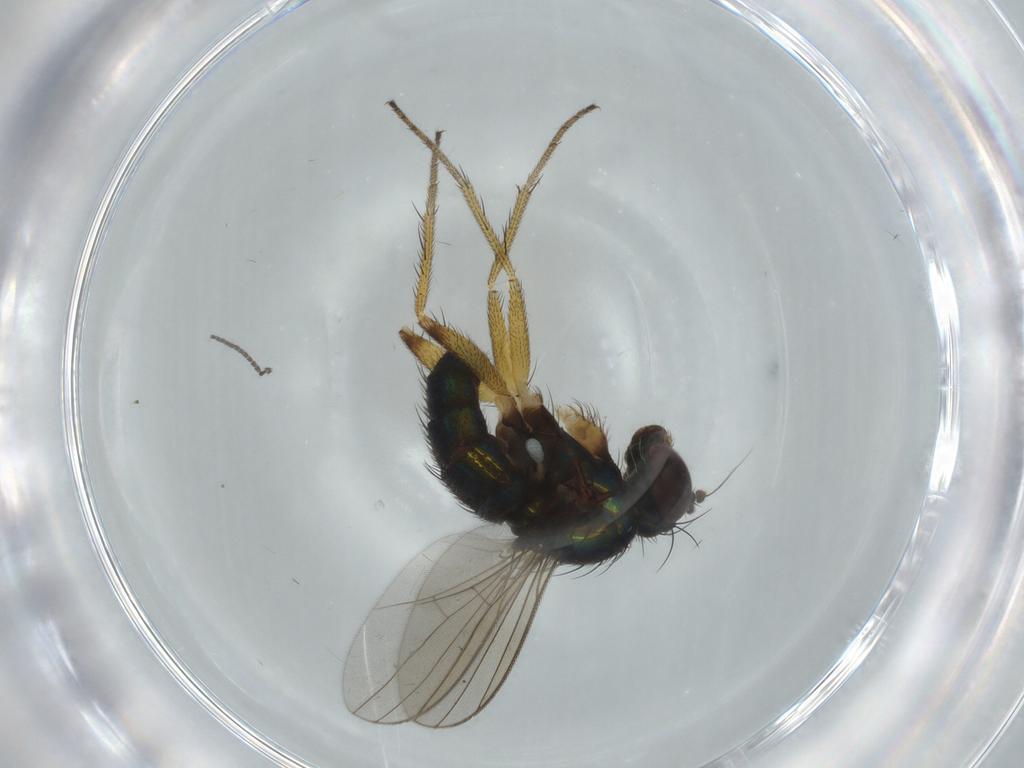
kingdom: Animalia
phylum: Arthropoda
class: Insecta
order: Diptera
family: Dolichopodidae
